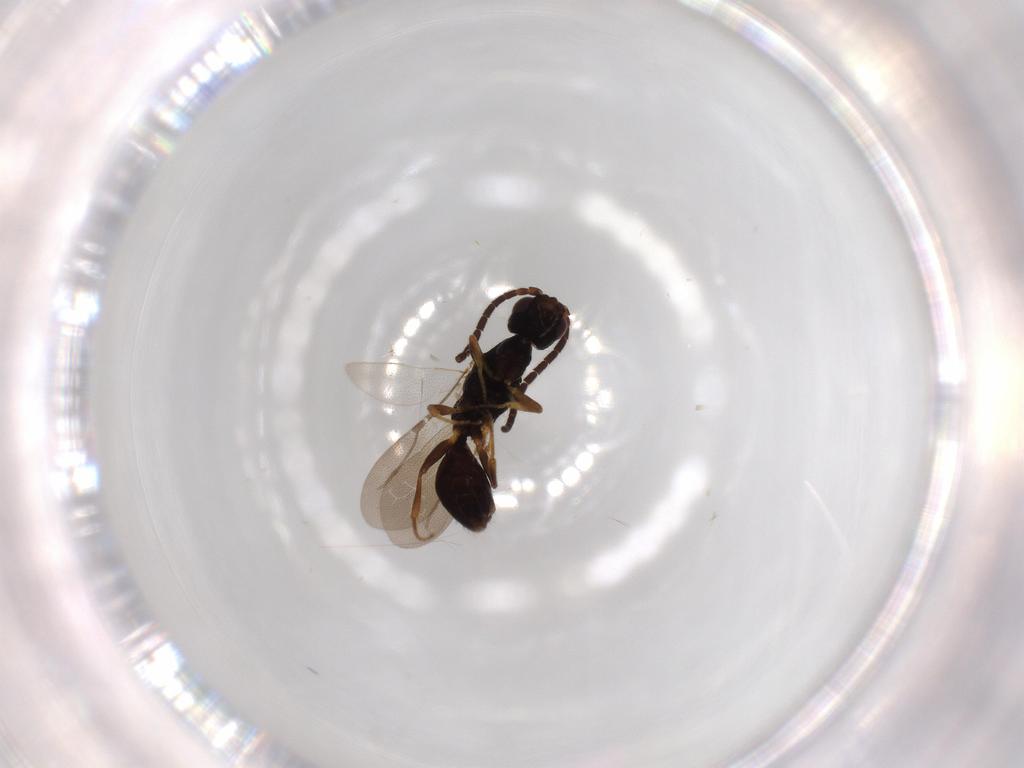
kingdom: Animalia
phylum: Arthropoda
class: Insecta
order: Hymenoptera
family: Bethylidae
